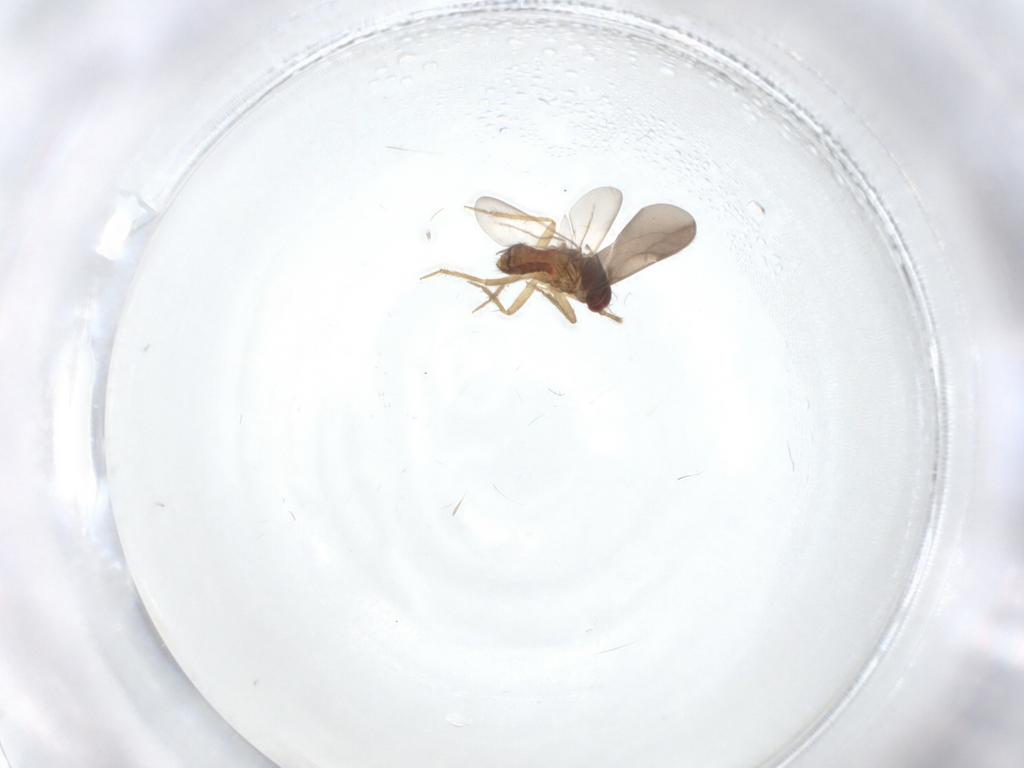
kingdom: Animalia
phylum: Arthropoda
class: Insecta
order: Hemiptera
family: Ceratocombidae
